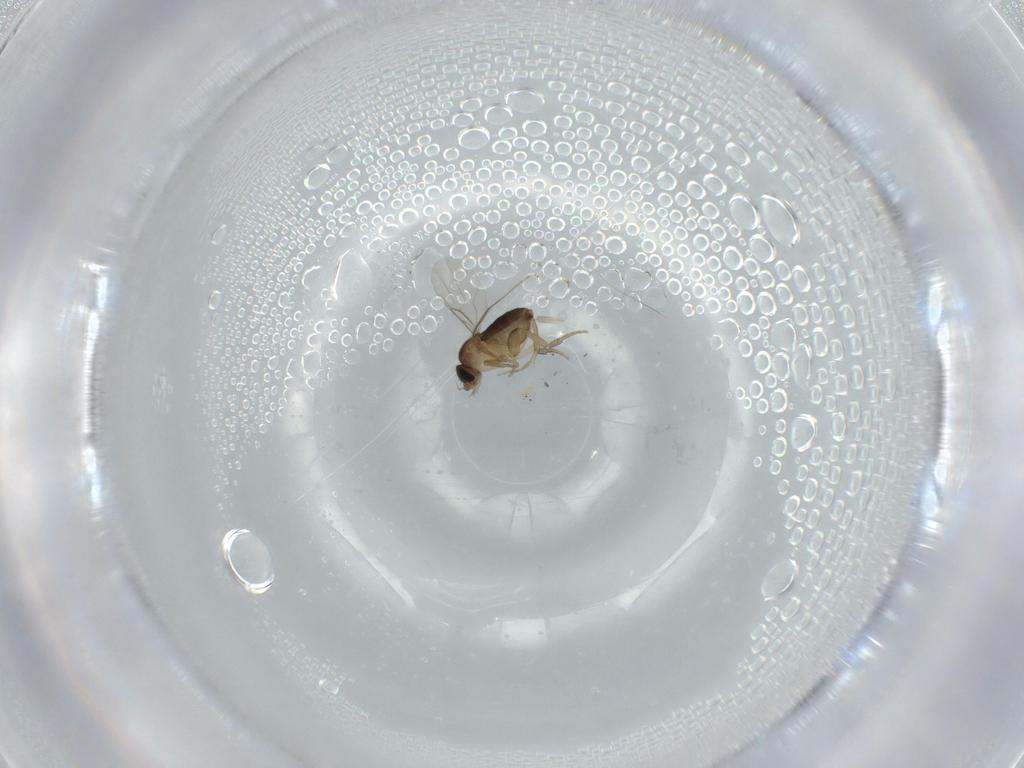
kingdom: Animalia
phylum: Arthropoda
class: Insecta
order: Diptera
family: Phoridae
